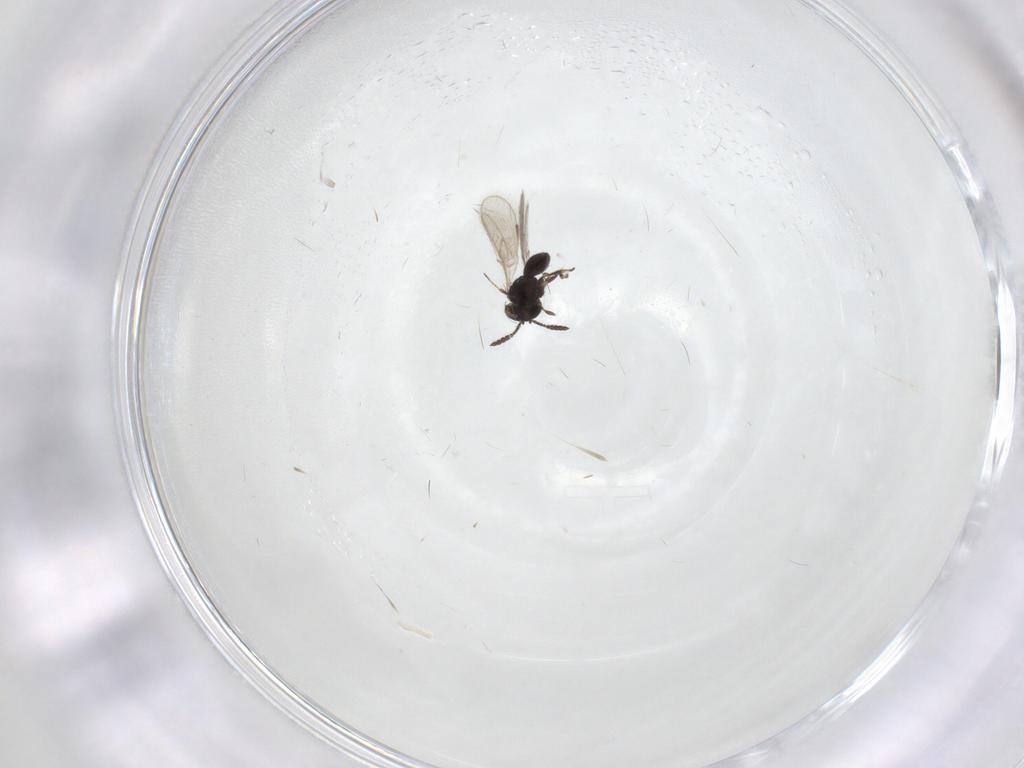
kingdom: Animalia
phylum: Arthropoda
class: Insecta
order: Hymenoptera
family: Scelionidae
